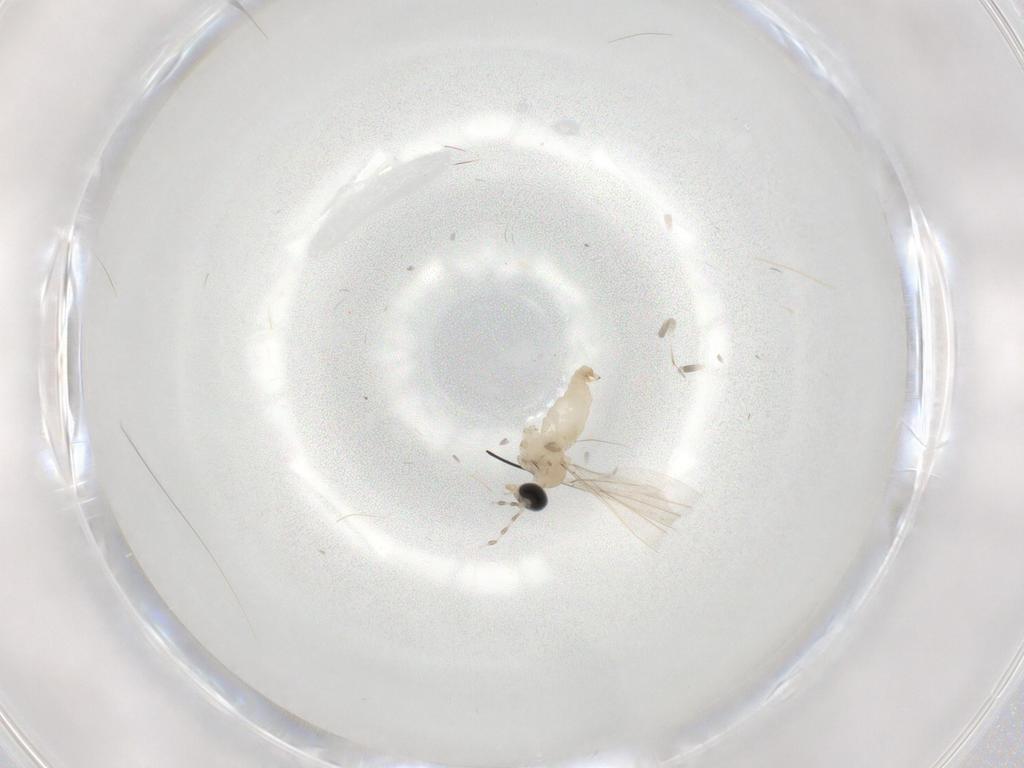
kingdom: Animalia
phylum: Arthropoda
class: Insecta
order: Diptera
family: Cecidomyiidae
